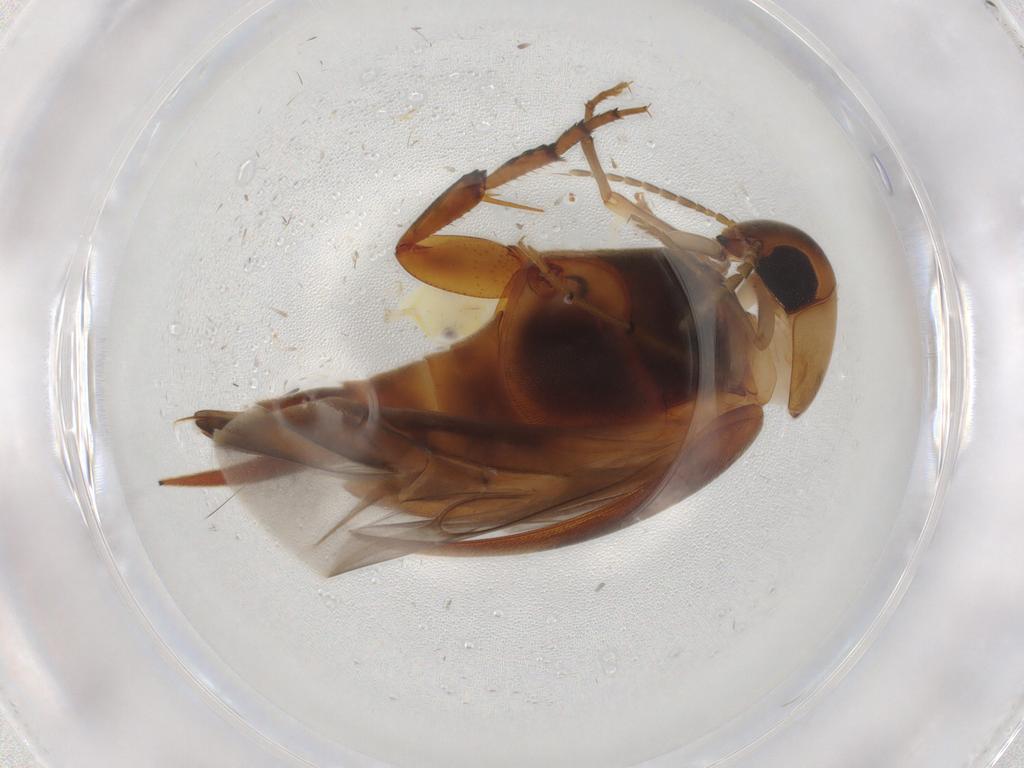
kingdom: Animalia
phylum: Arthropoda
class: Insecta
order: Coleoptera
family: Mordellidae
